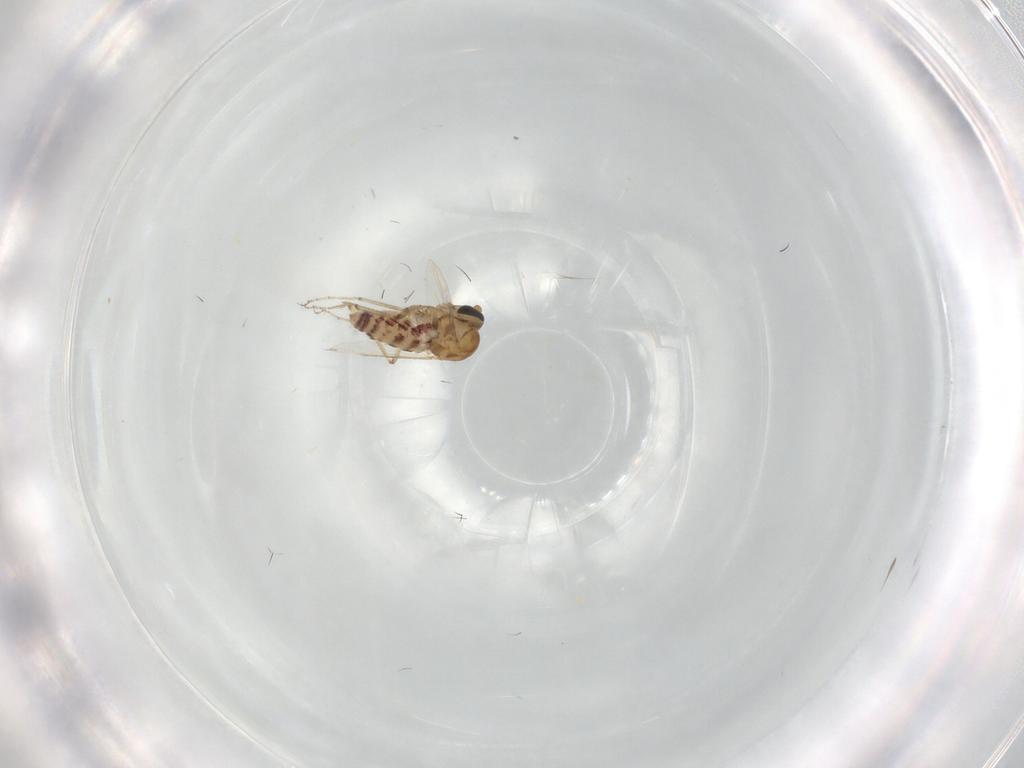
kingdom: Animalia
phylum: Arthropoda
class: Insecta
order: Diptera
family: Ceratopogonidae
